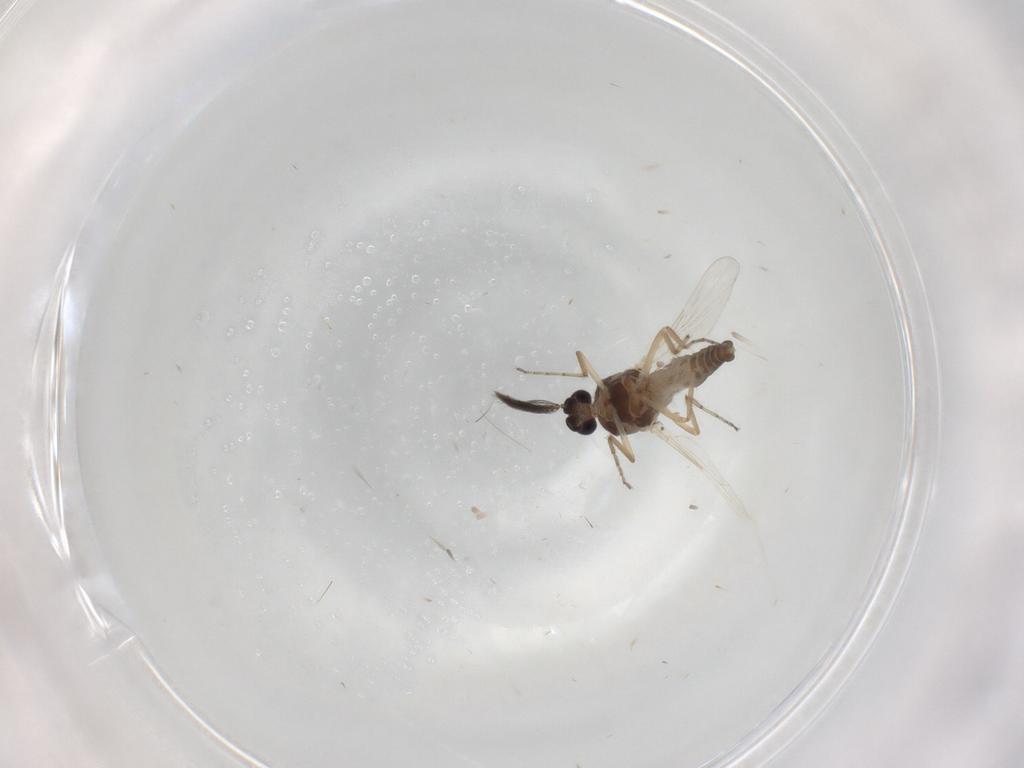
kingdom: Animalia
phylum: Arthropoda
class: Insecta
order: Diptera
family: Ceratopogonidae
